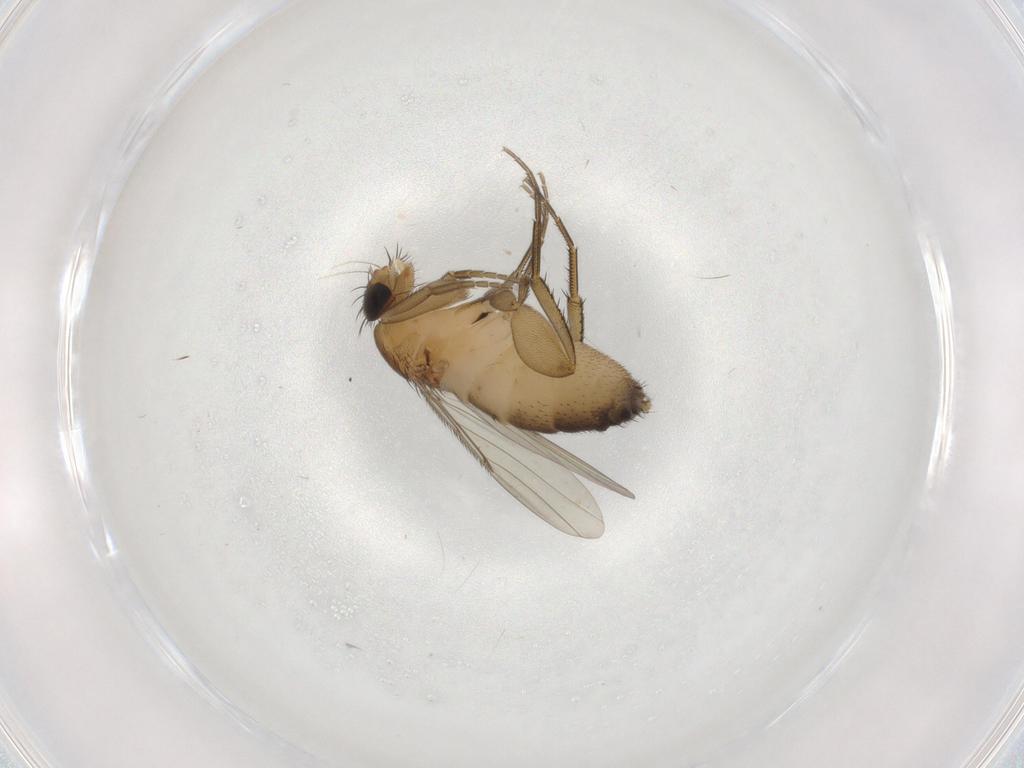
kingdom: Animalia
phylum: Arthropoda
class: Insecta
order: Diptera
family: Phoridae
